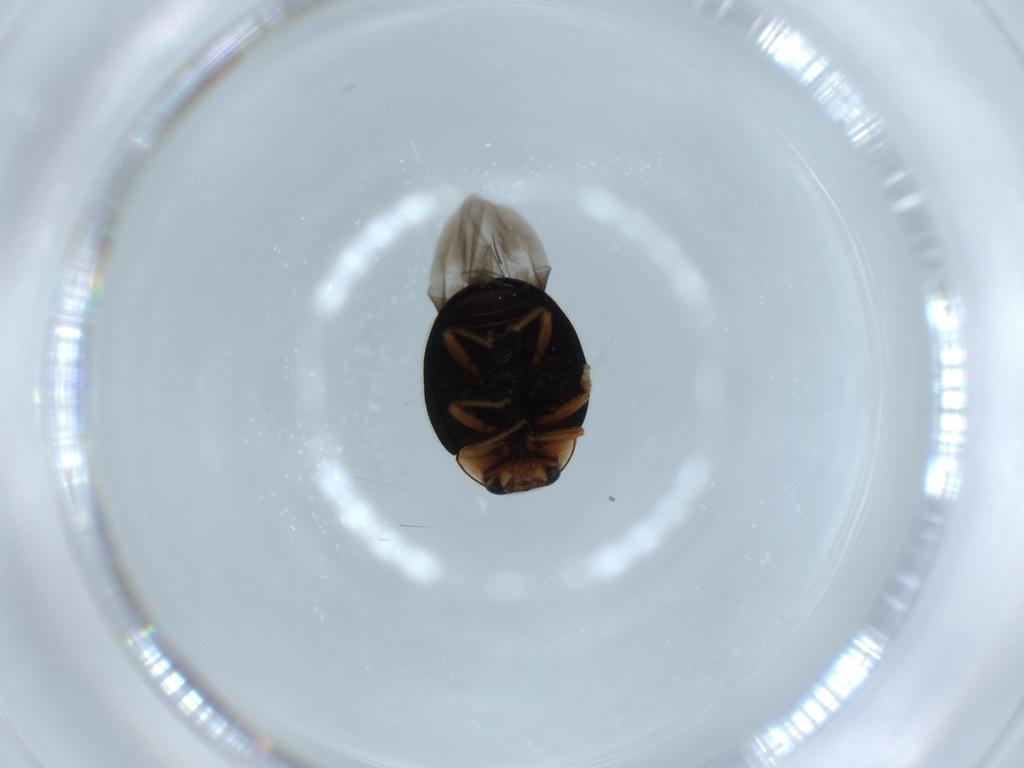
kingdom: Animalia
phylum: Arthropoda
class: Insecta
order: Coleoptera
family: Coccinellidae
